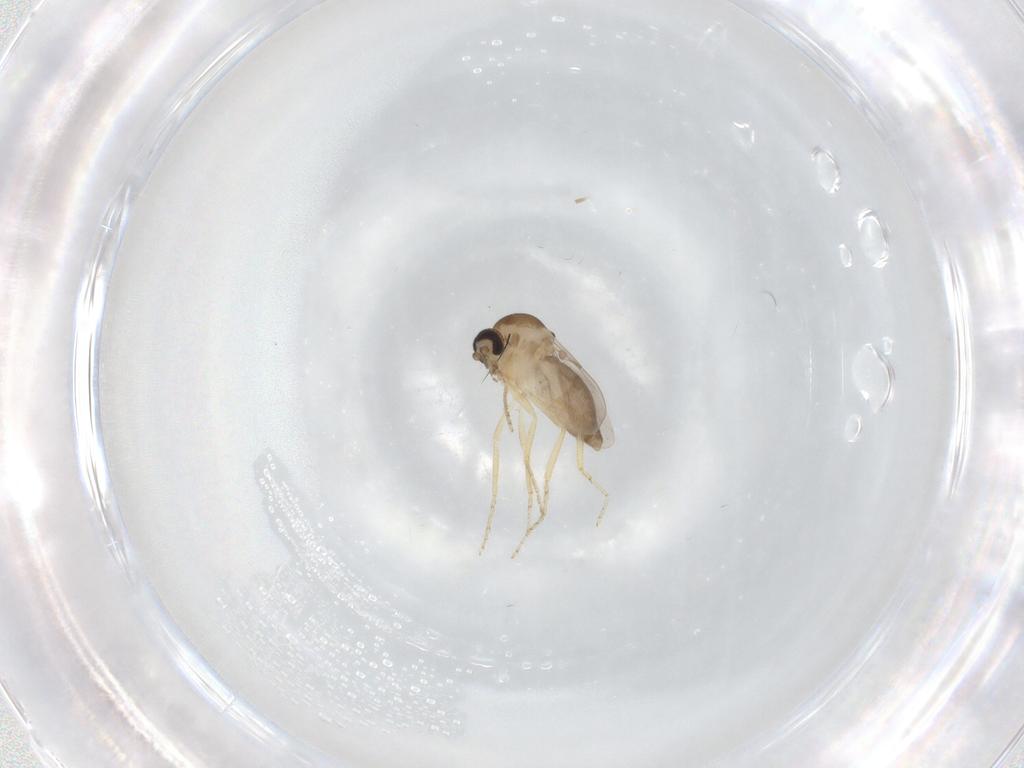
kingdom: Animalia
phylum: Arthropoda
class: Insecta
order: Diptera
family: Ceratopogonidae
